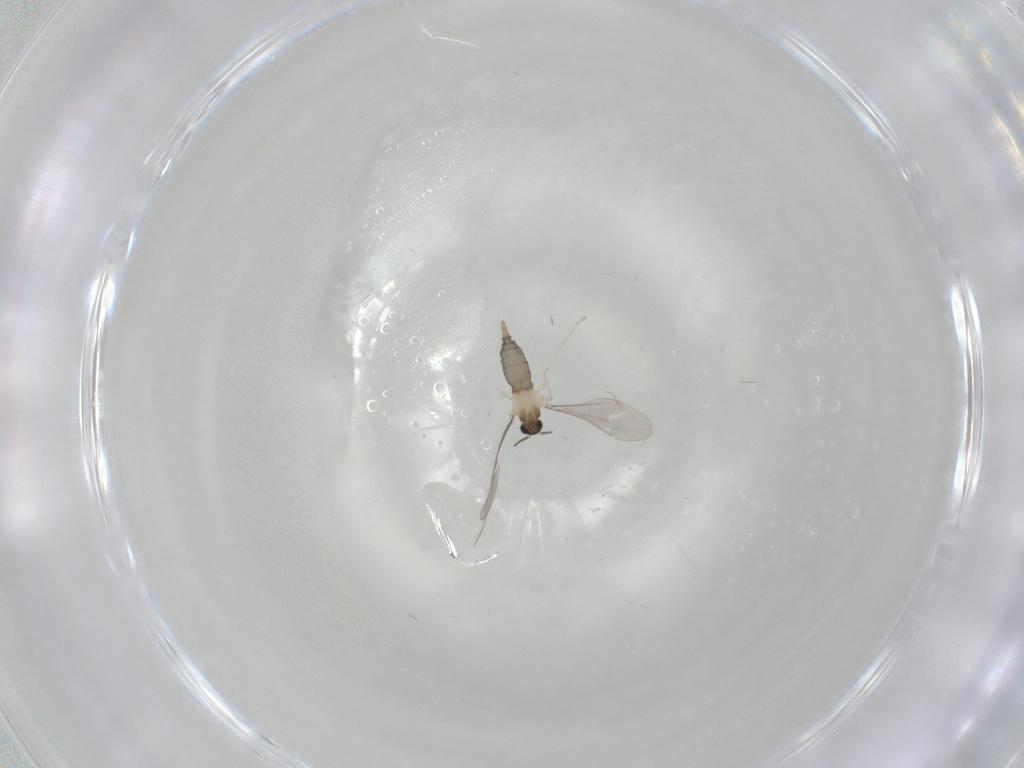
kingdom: Animalia
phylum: Arthropoda
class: Insecta
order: Diptera
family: Cecidomyiidae
